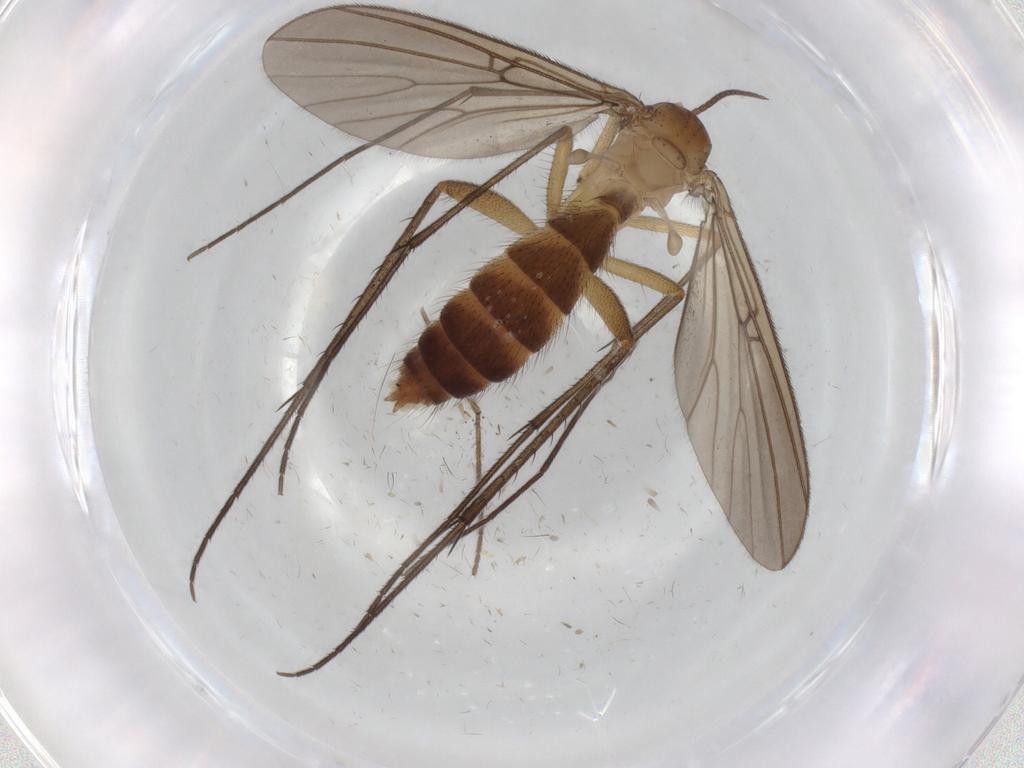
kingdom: Animalia
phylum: Arthropoda
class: Insecta
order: Diptera
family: Mycetophilidae
